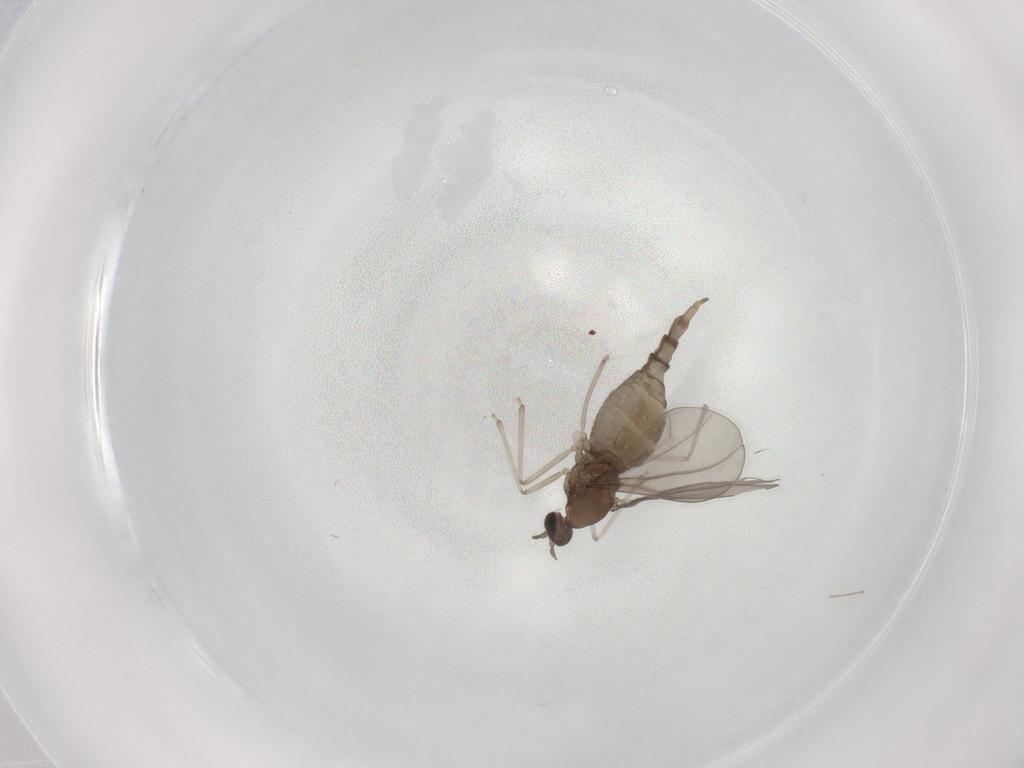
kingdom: Animalia
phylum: Arthropoda
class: Insecta
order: Diptera
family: Cecidomyiidae
